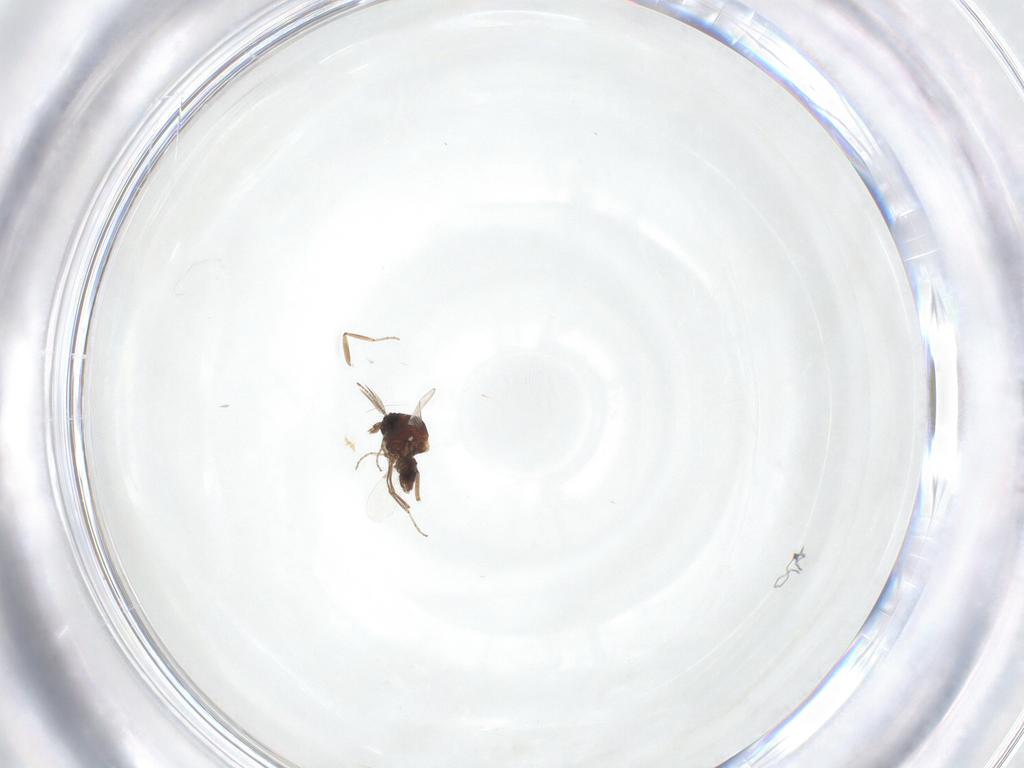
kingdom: Animalia
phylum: Arthropoda
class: Insecta
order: Diptera
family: Ceratopogonidae
